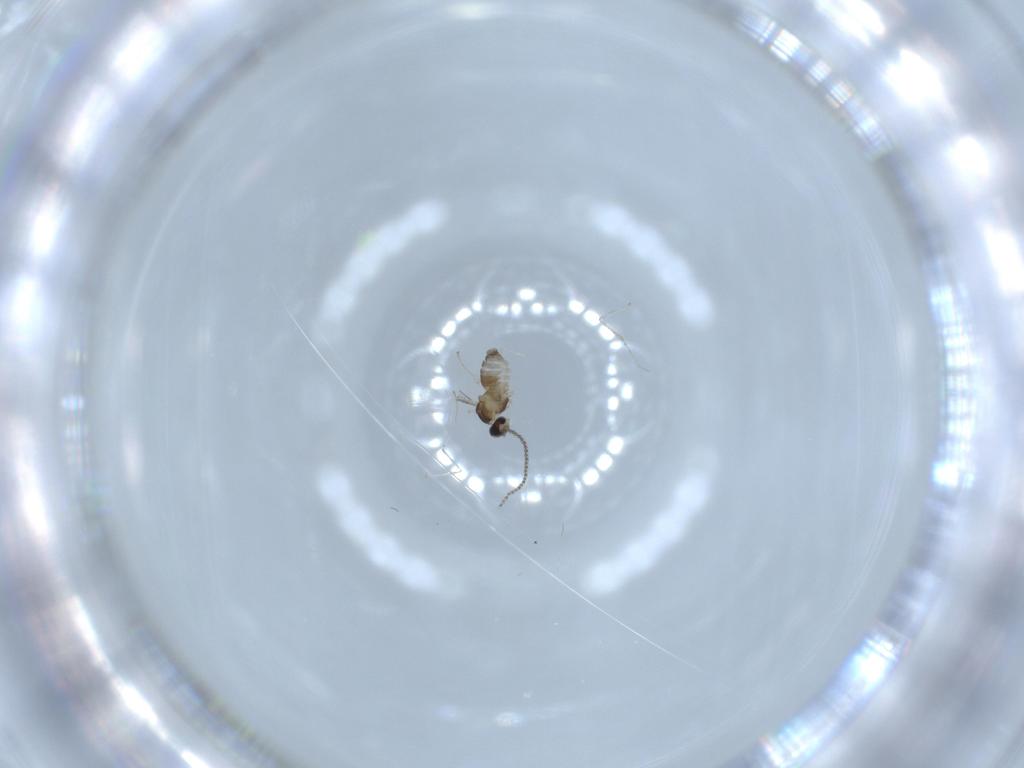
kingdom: Animalia
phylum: Arthropoda
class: Insecta
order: Diptera
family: Cecidomyiidae
